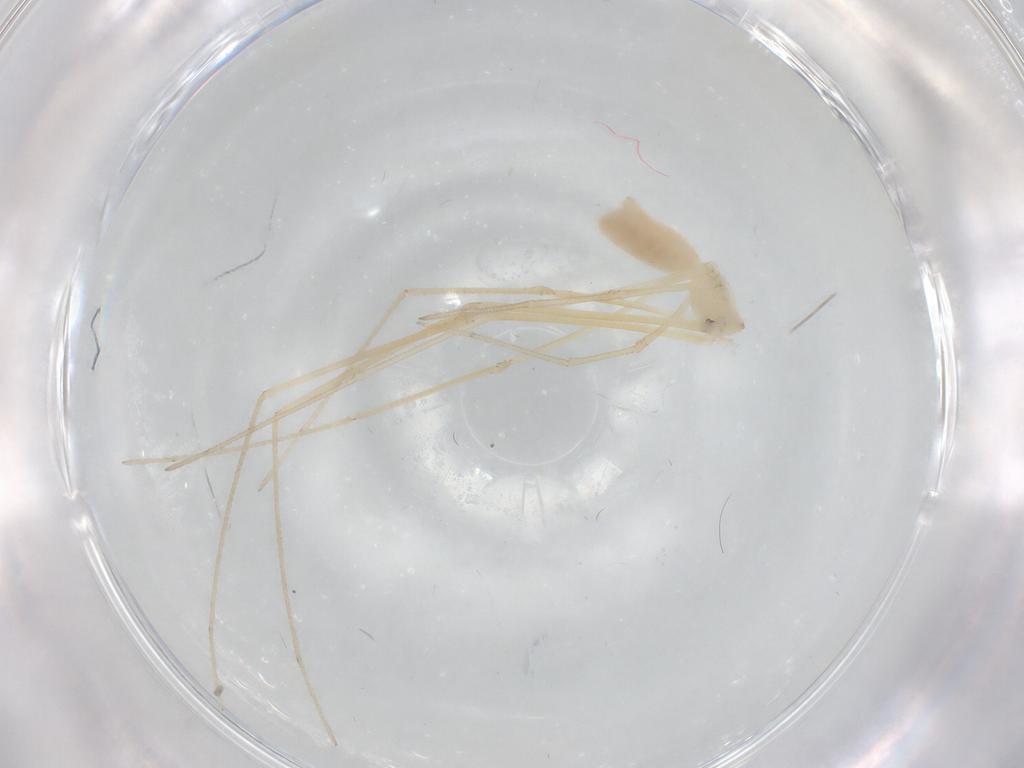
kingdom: Animalia
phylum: Arthropoda
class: Arachnida
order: Araneae
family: Pholcidae
